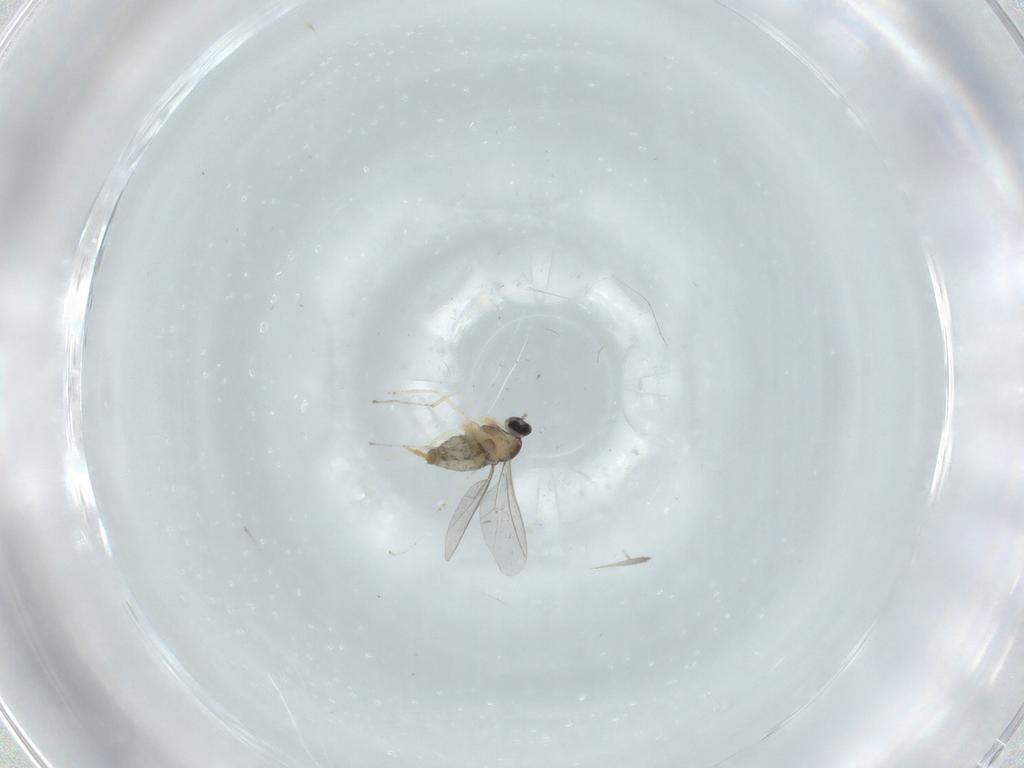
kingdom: Animalia
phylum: Arthropoda
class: Insecta
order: Diptera
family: Cecidomyiidae
